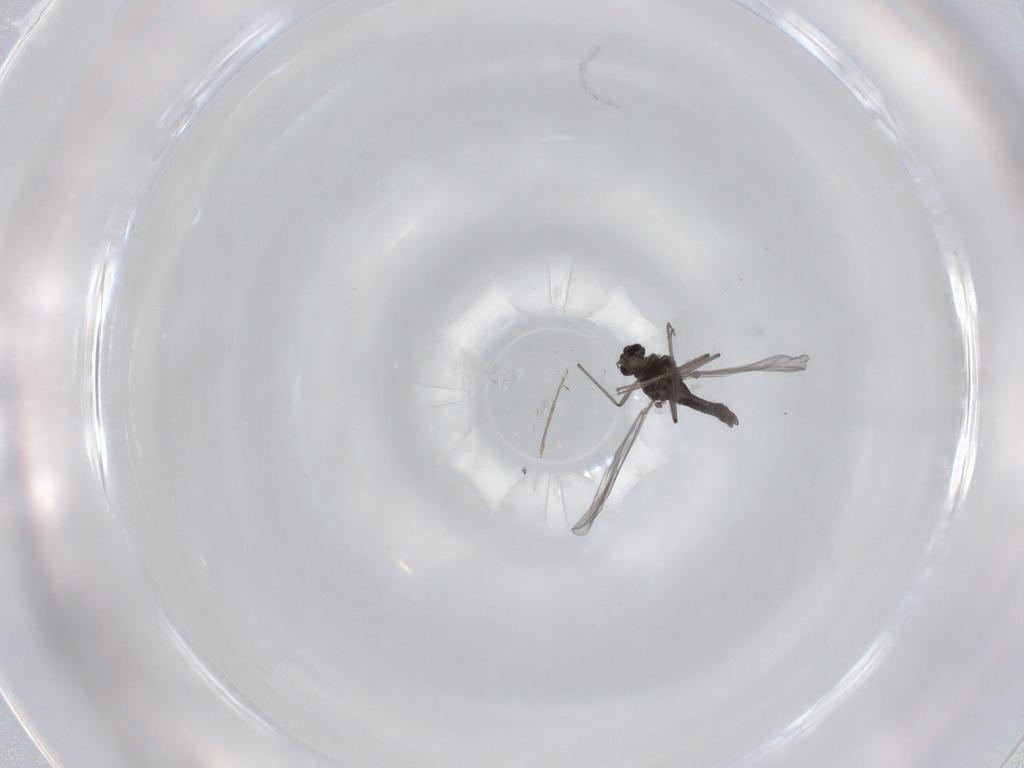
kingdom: Animalia
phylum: Arthropoda
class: Insecta
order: Diptera
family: Chironomidae
